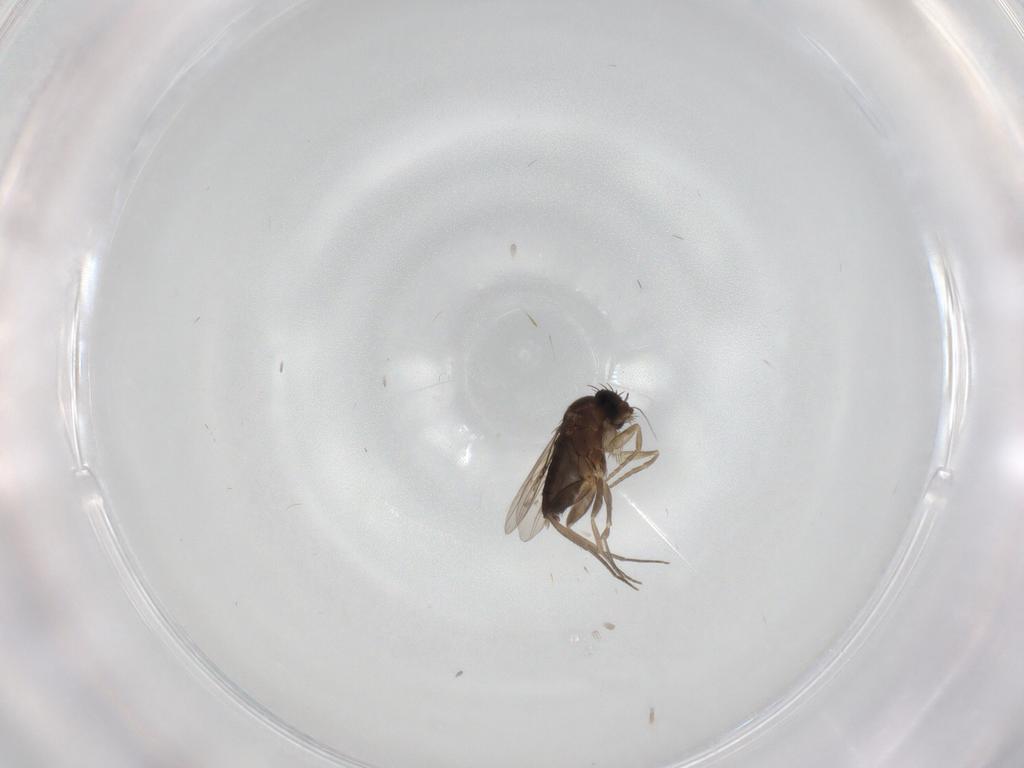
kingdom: Animalia
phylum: Arthropoda
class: Insecta
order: Diptera
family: Phoridae
